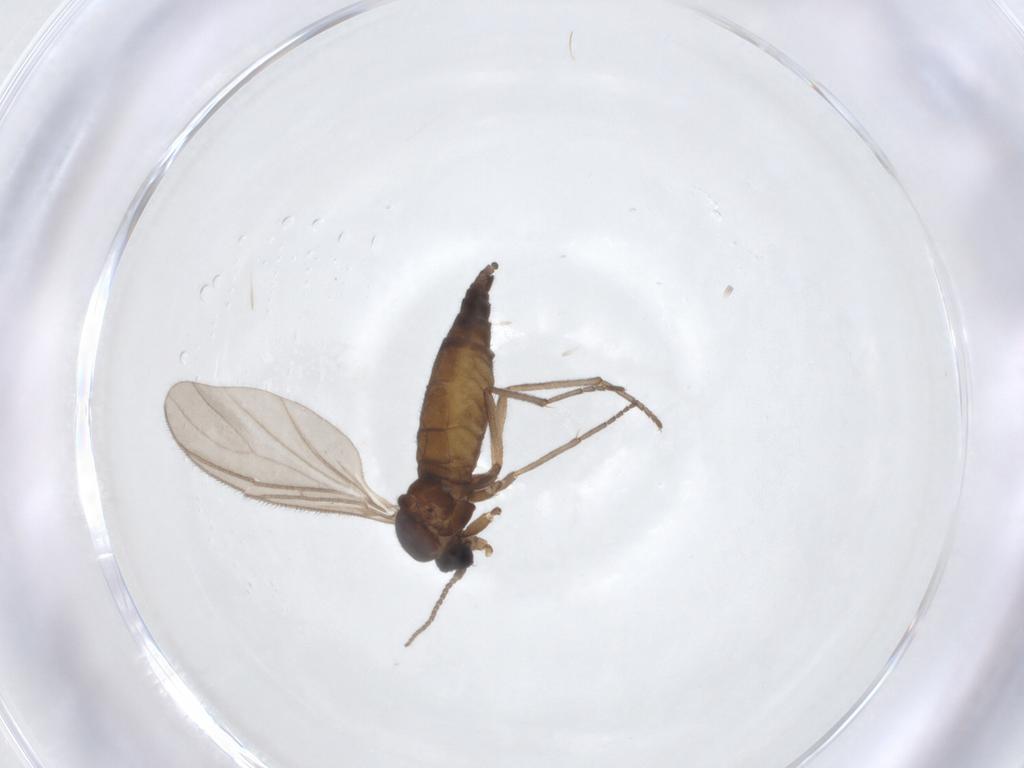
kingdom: Animalia
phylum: Arthropoda
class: Insecta
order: Diptera
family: Sciaridae
